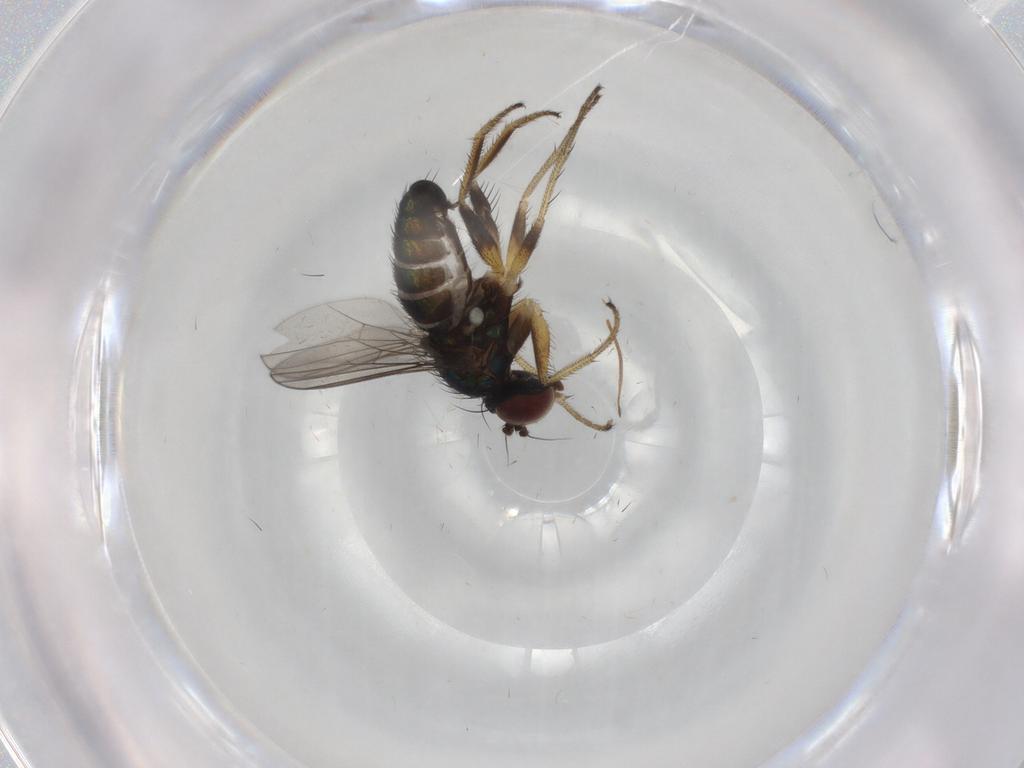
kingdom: Animalia
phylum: Arthropoda
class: Insecta
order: Diptera
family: Dolichopodidae
